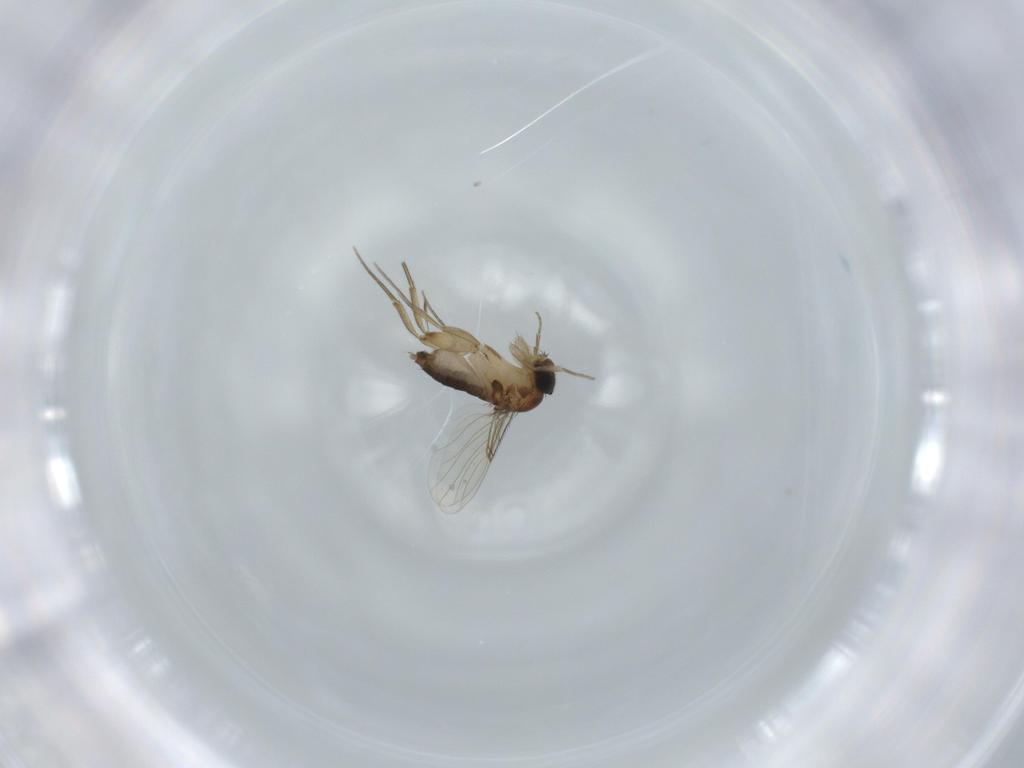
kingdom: Animalia
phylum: Arthropoda
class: Insecta
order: Diptera
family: Phoridae
